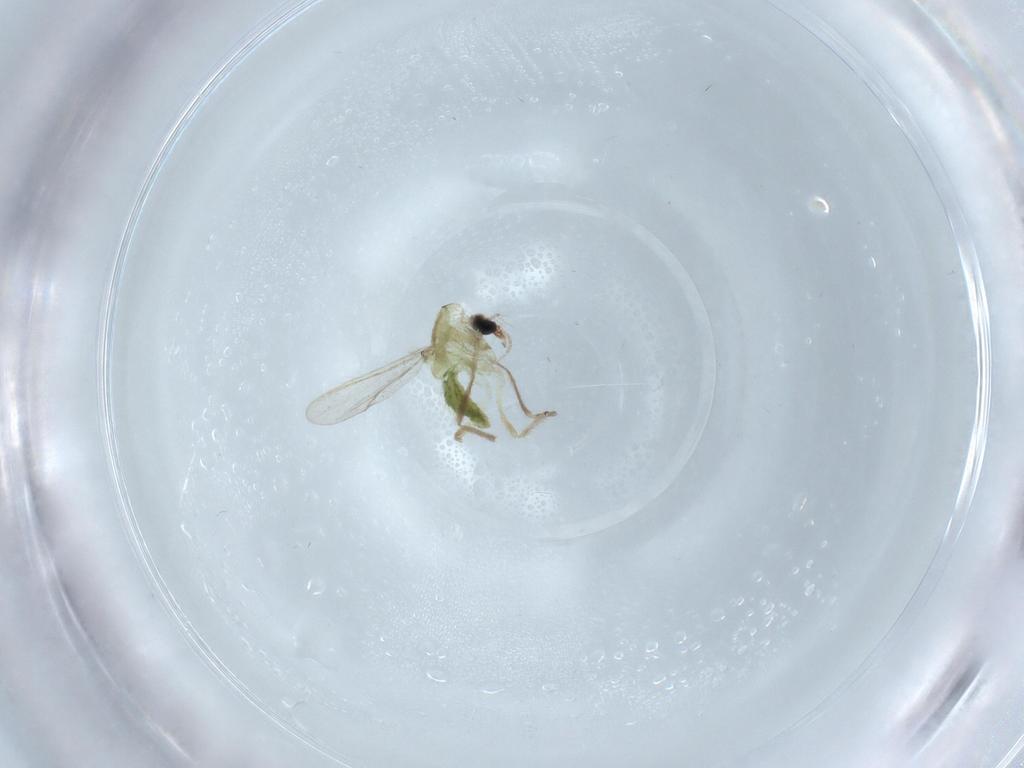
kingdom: Animalia
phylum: Arthropoda
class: Insecta
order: Diptera
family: Chironomidae
